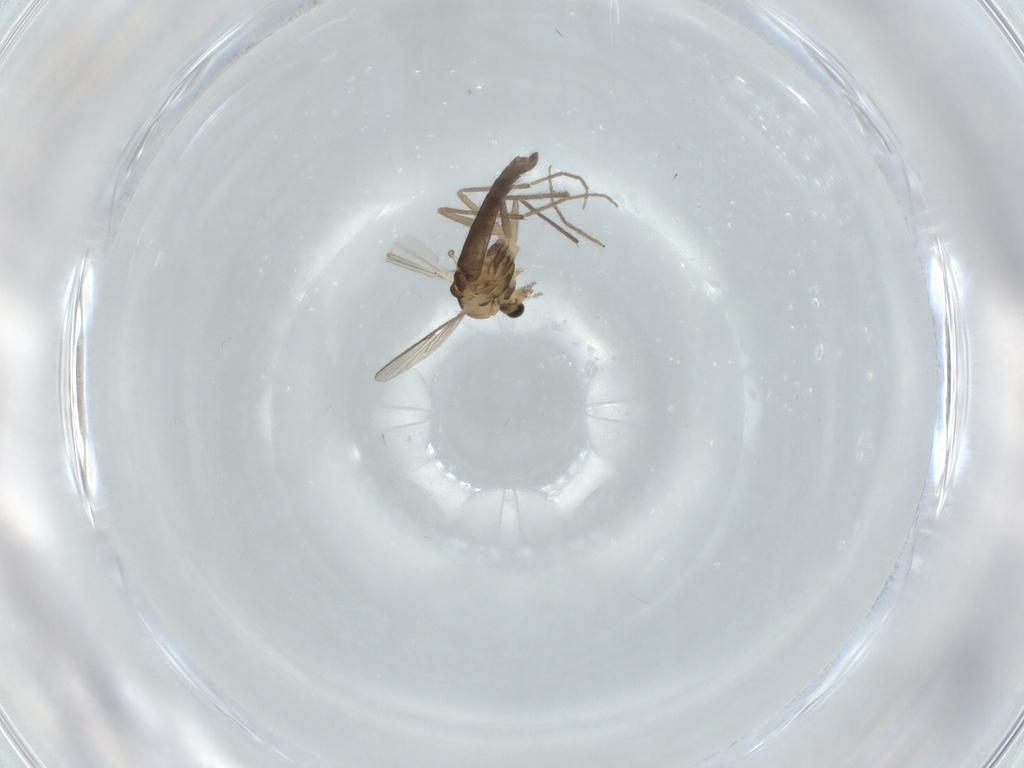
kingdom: Animalia
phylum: Arthropoda
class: Insecta
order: Diptera
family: Chironomidae
